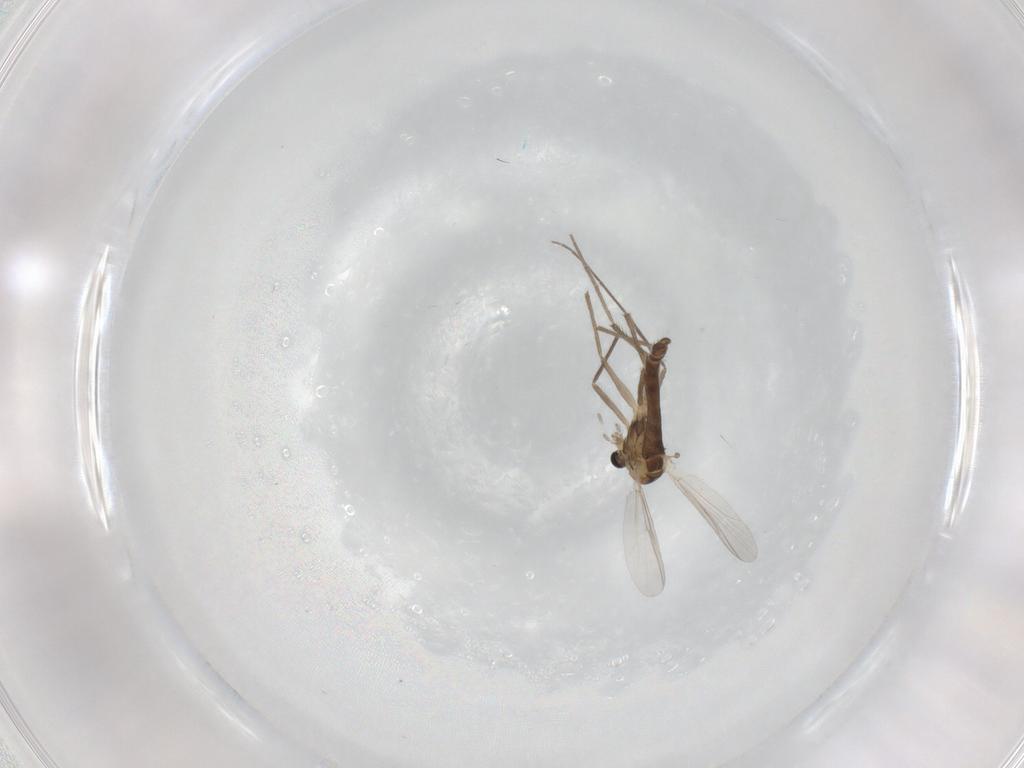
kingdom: Animalia
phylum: Arthropoda
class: Insecta
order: Diptera
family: Chironomidae
